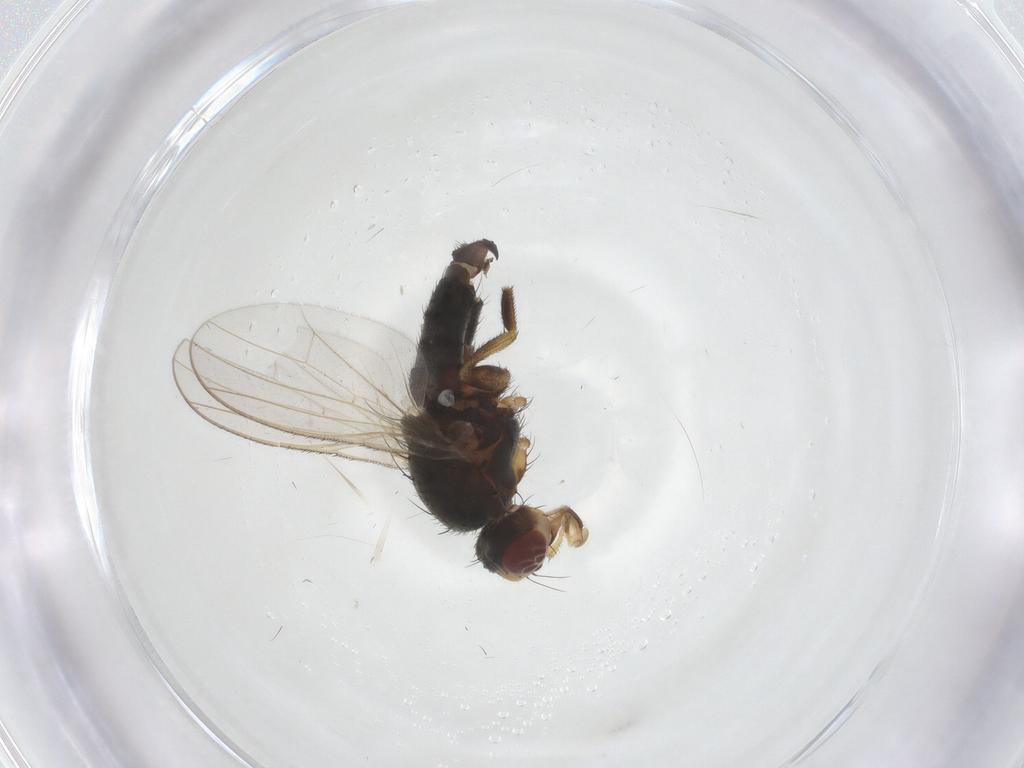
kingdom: Animalia
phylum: Arthropoda
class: Insecta
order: Diptera
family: Heleomyzidae
